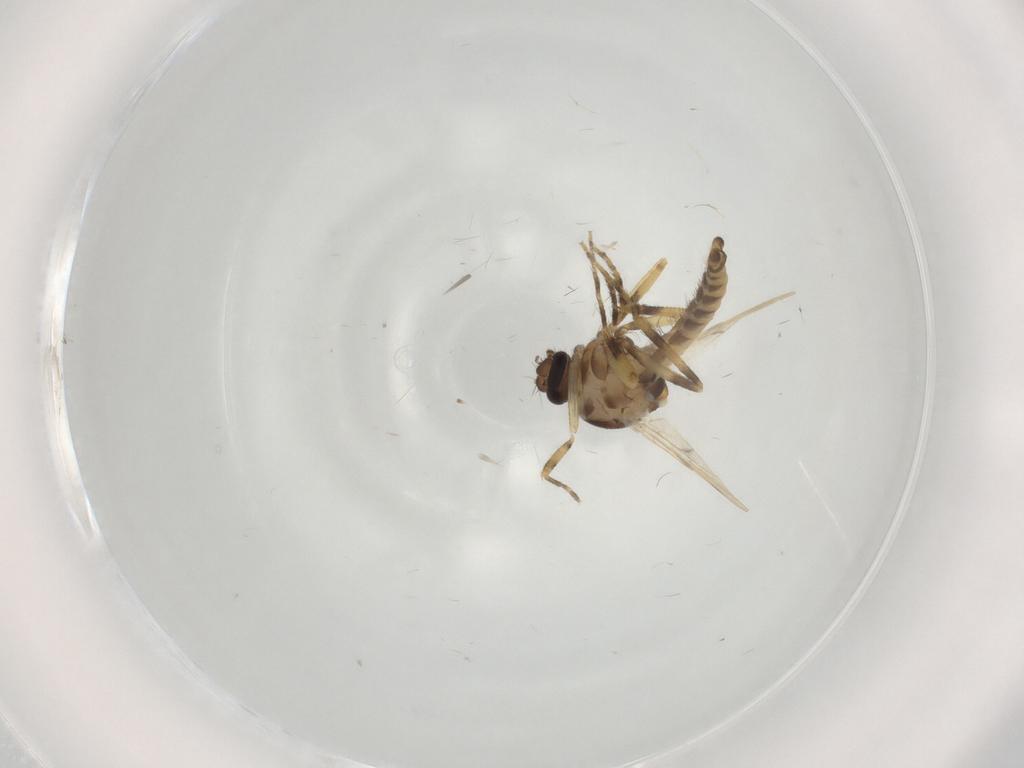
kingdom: Animalia
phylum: Arthropoda
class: Insecta
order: Diptera
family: Ceratopogonidae
